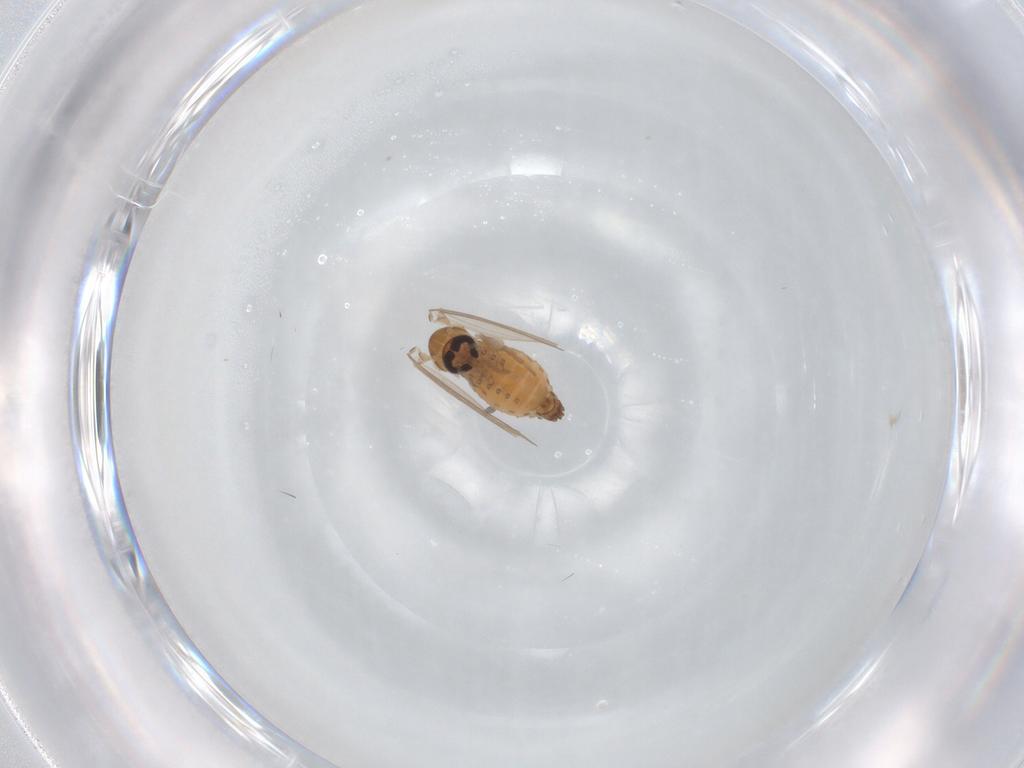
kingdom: Animalia
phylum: Arthropoda
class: Insecta
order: Diptera
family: Psychodidae
